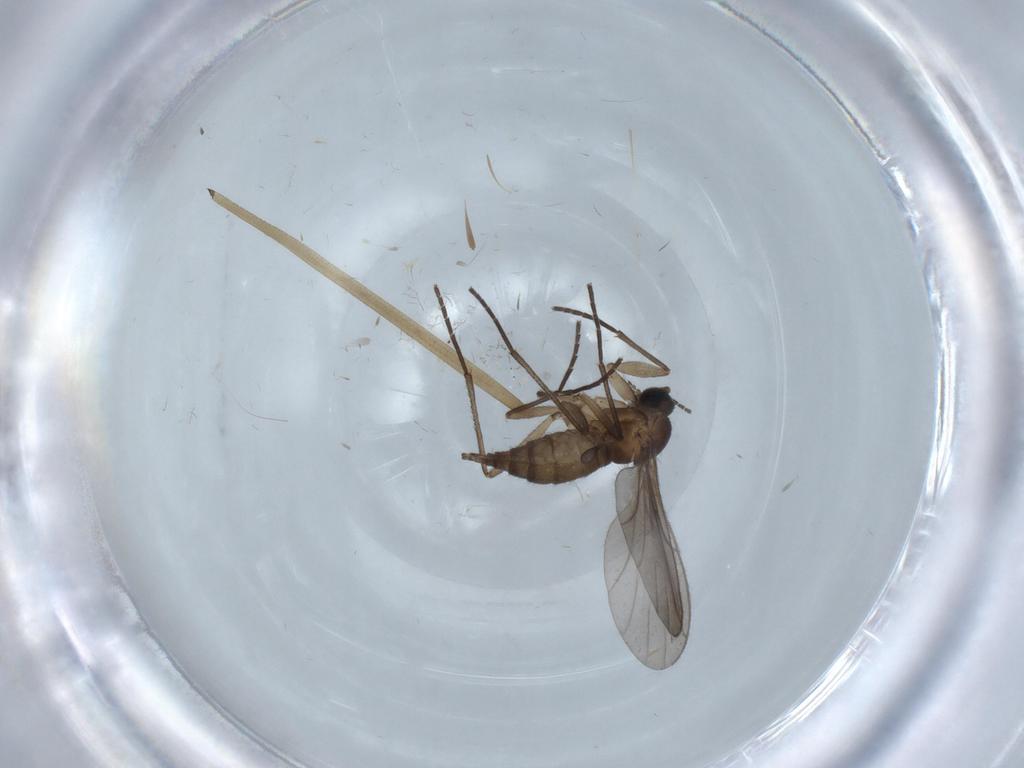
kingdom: Animalia
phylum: Arthropoda
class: Insecta
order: Diptera
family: Sciaridae
